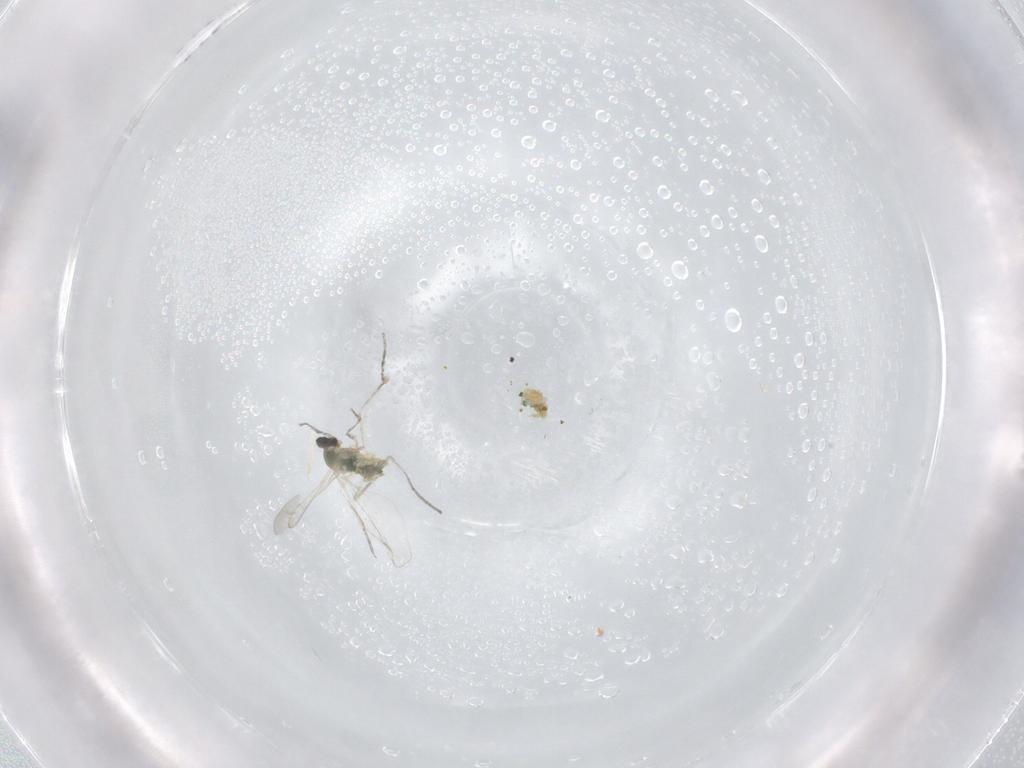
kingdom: Animalia
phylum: Arthropoda
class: Insecta
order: Diptera
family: Cecidomyiidae
